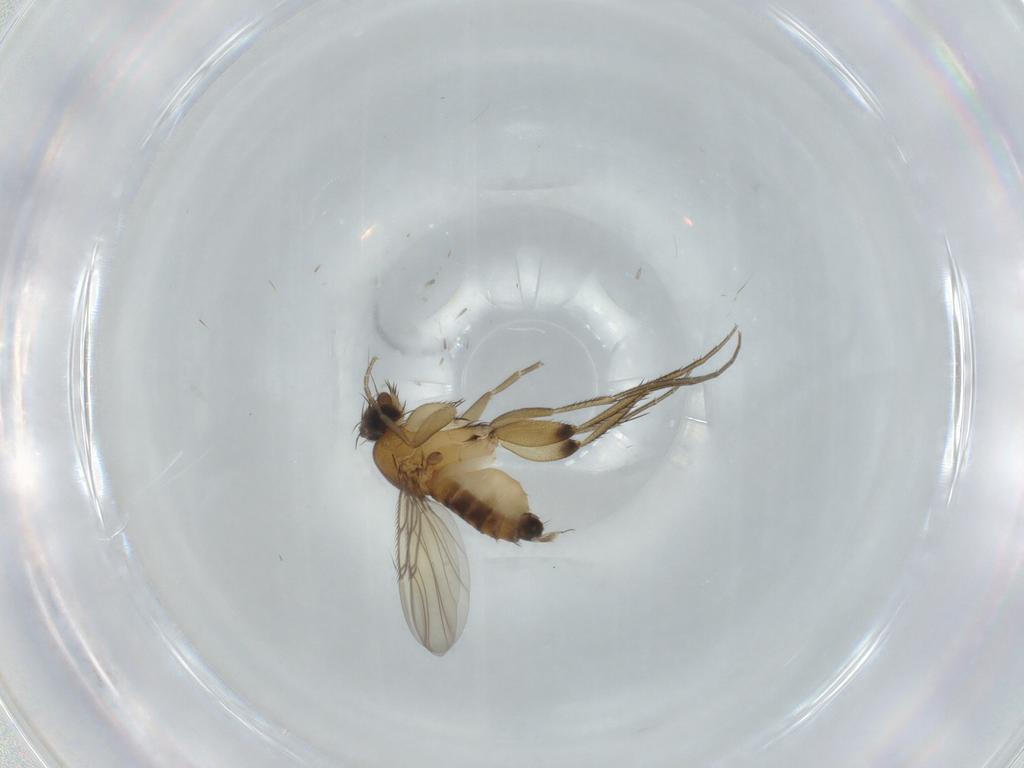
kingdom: Animalia
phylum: Arthropoda
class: Insecta
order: Diptera
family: Phoridae
